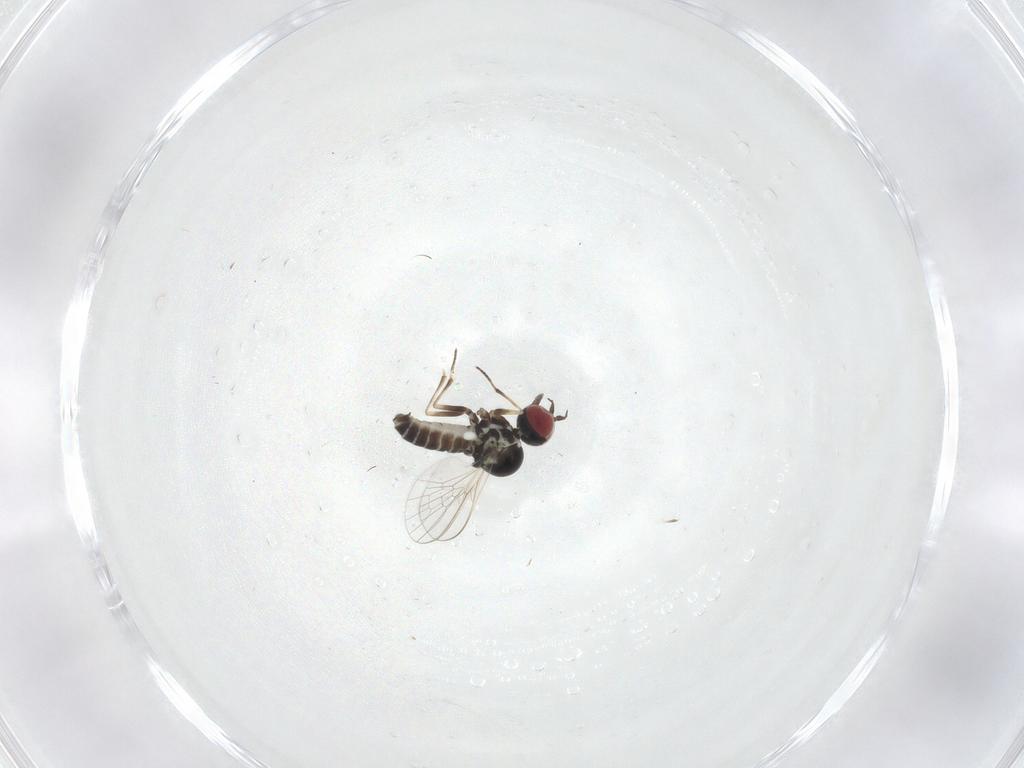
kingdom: Animalia
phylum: Arthropoda
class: Insecta
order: Diptera
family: Bombyliidae
